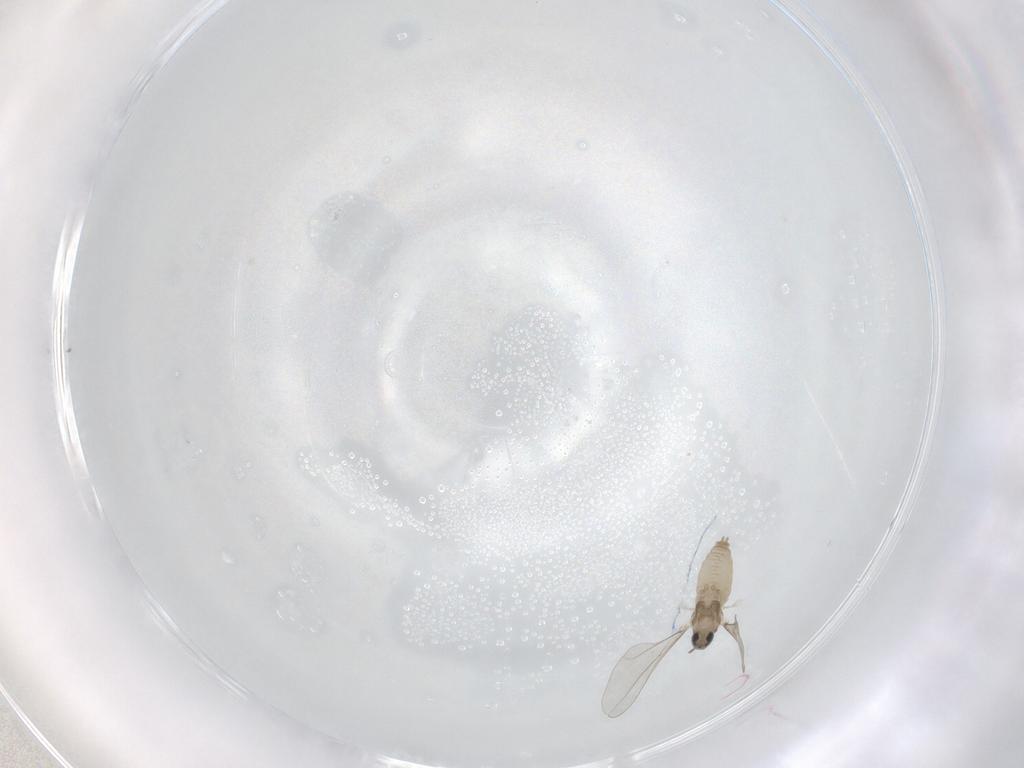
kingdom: Animalia
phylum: Arthropoda
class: Insecta
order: Diptera
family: Cecidomyiidae
